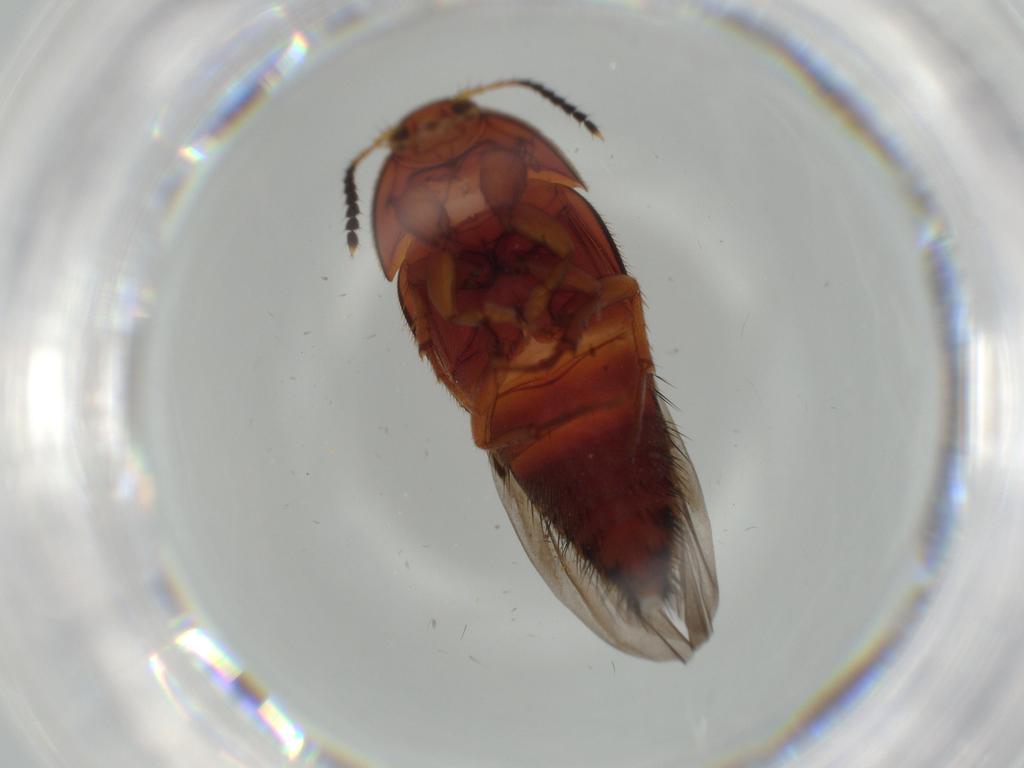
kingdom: Animalia
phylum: Arthropoda
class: Insecta
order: Coleoptera
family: Staphylinidae
